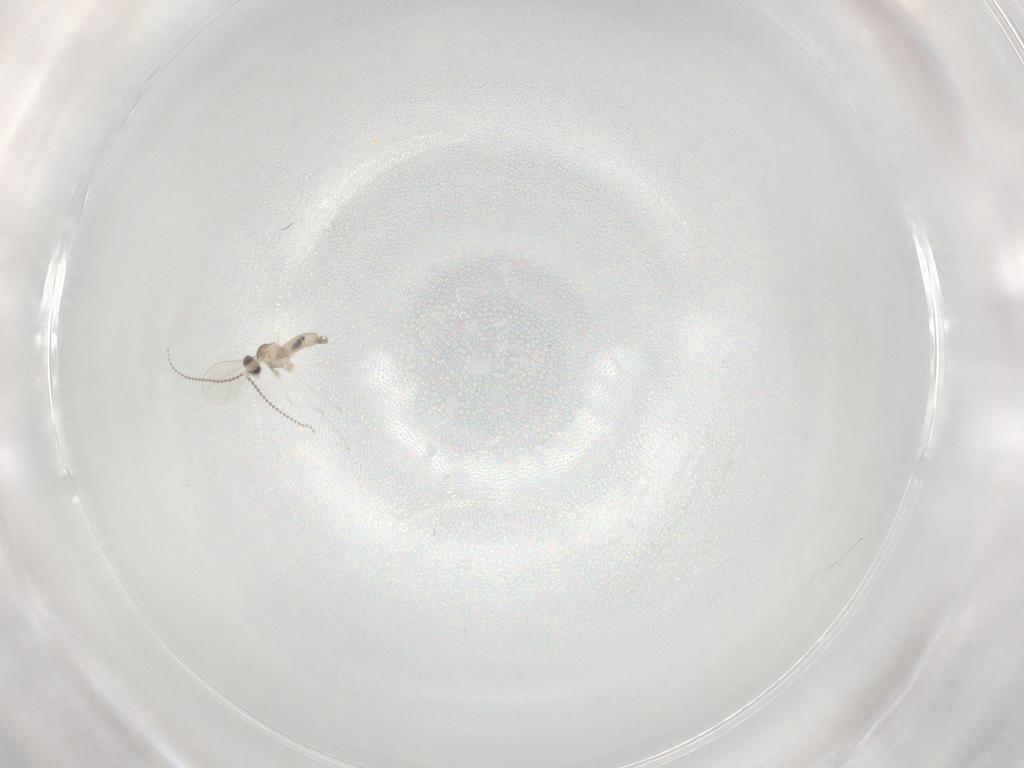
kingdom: Animalia
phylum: Arthropoda
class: Insecta
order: Diptera
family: Cecidomyiidae
